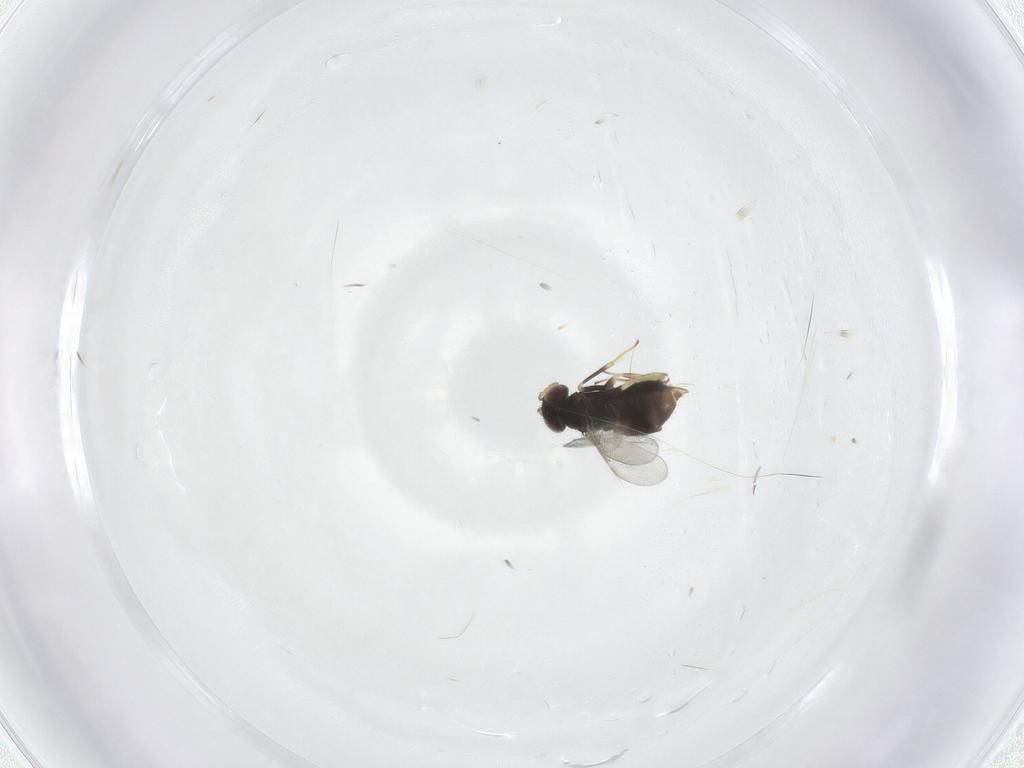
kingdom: Animalia
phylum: Arthropoda
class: Insecta
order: Hymenoptera
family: Aphelinidae
